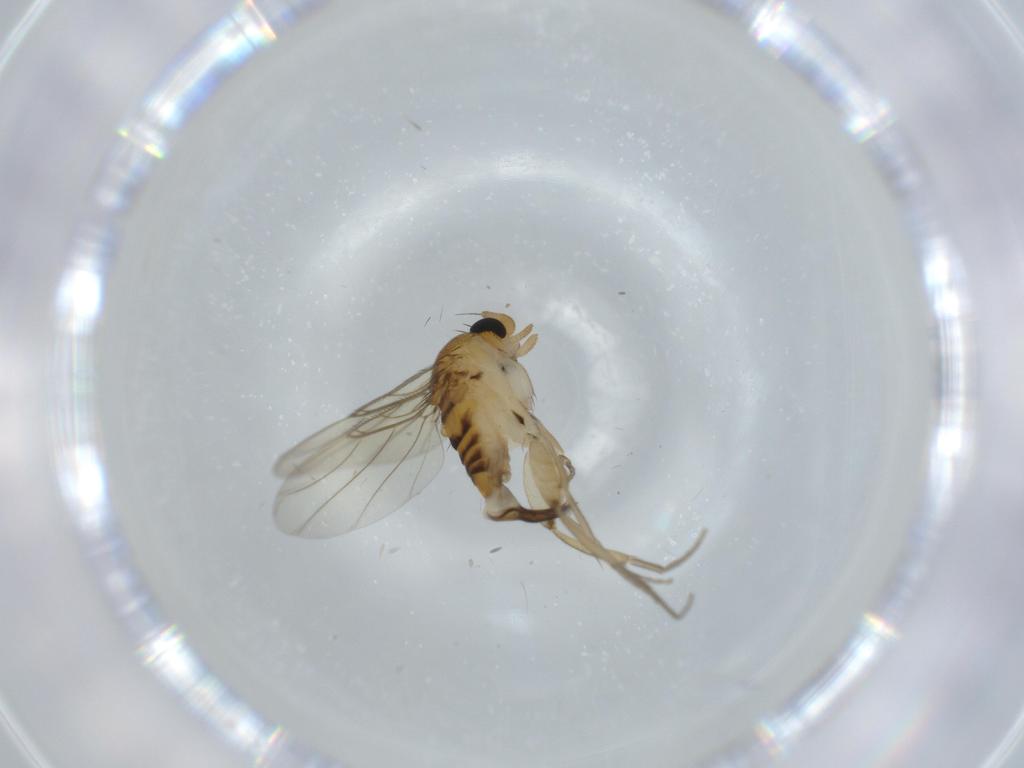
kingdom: Animalia
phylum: Arthropoda
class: Insecta
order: Diptera
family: Phoridae
